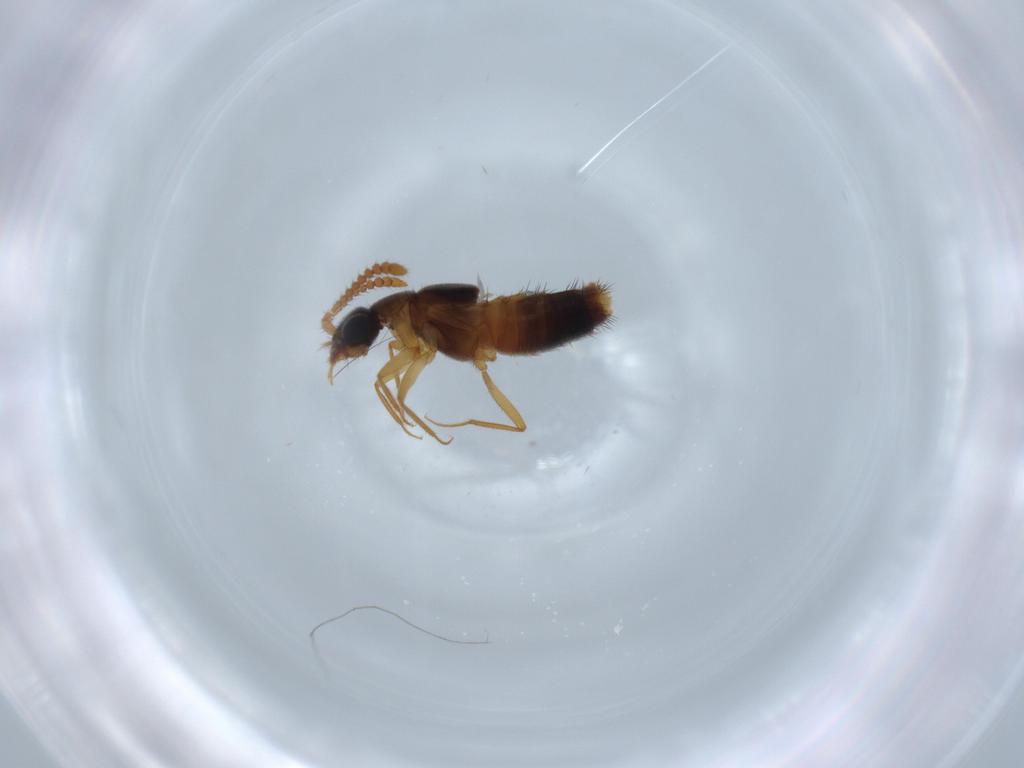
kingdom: Animalia
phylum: Arthropoda
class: Insecta
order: Coleoptera
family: Staphylinidae
